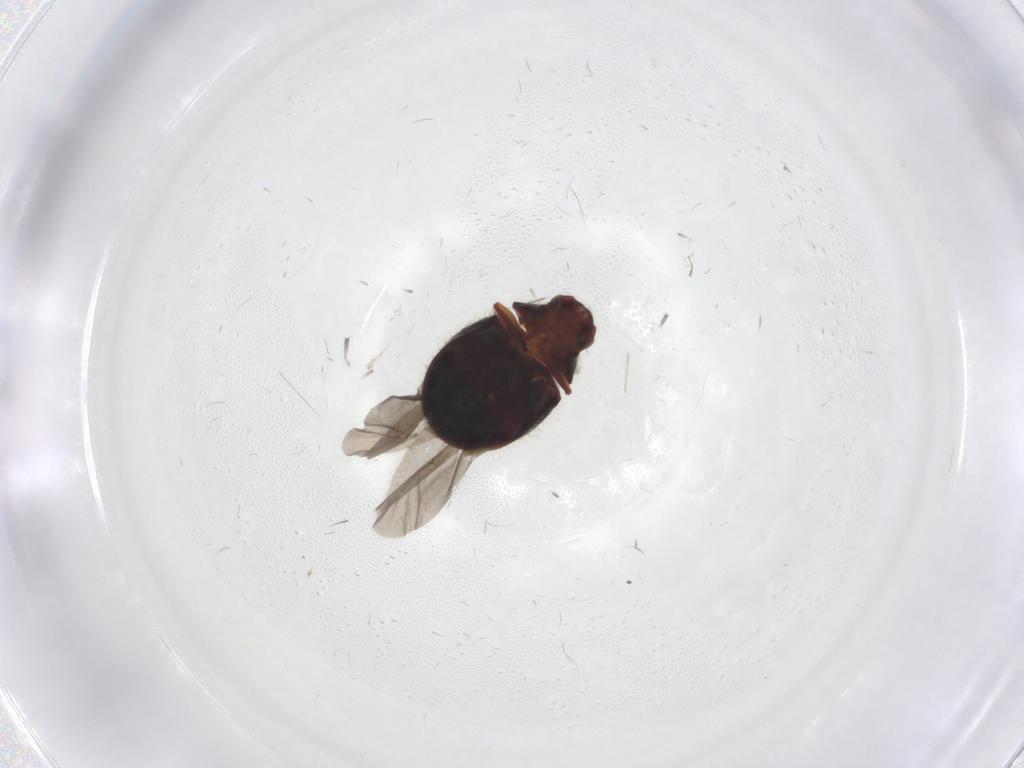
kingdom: Animalia
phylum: Arthropoda
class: Insecta
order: Coleoptera
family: Ptinidae
